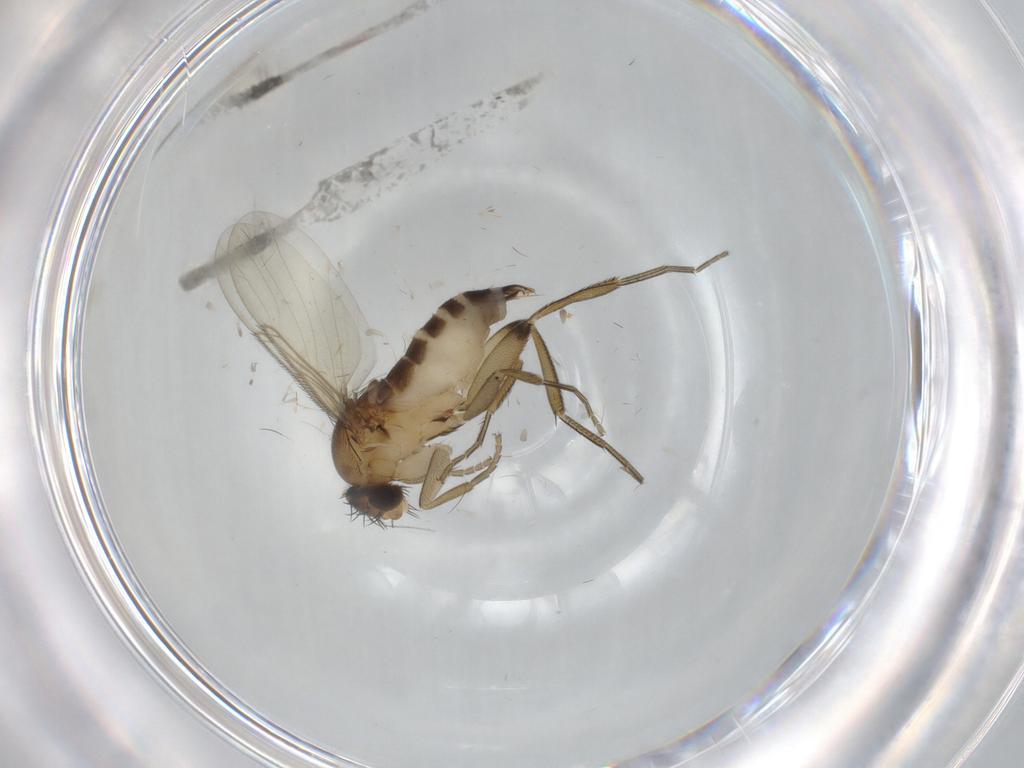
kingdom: Animalia
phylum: Arthropoda
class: Insecta
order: Diptera
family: Phoridae
